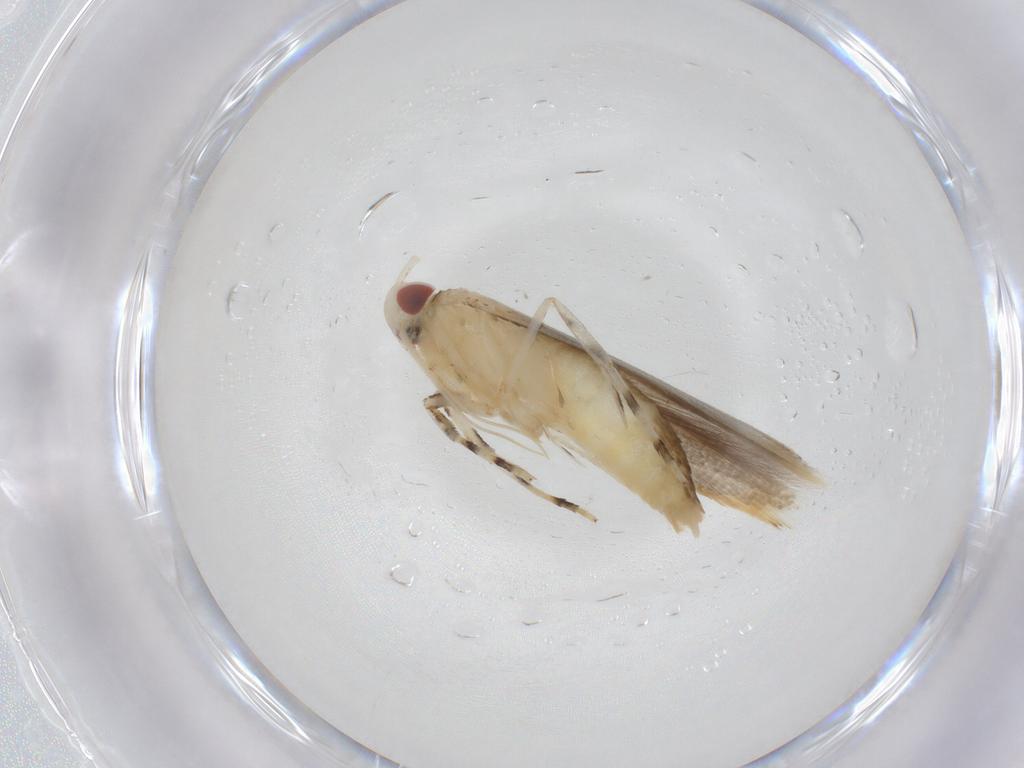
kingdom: Animalia
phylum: Arthropoda
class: Insecta
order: Lepidoptera
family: Cosmopterigidae
